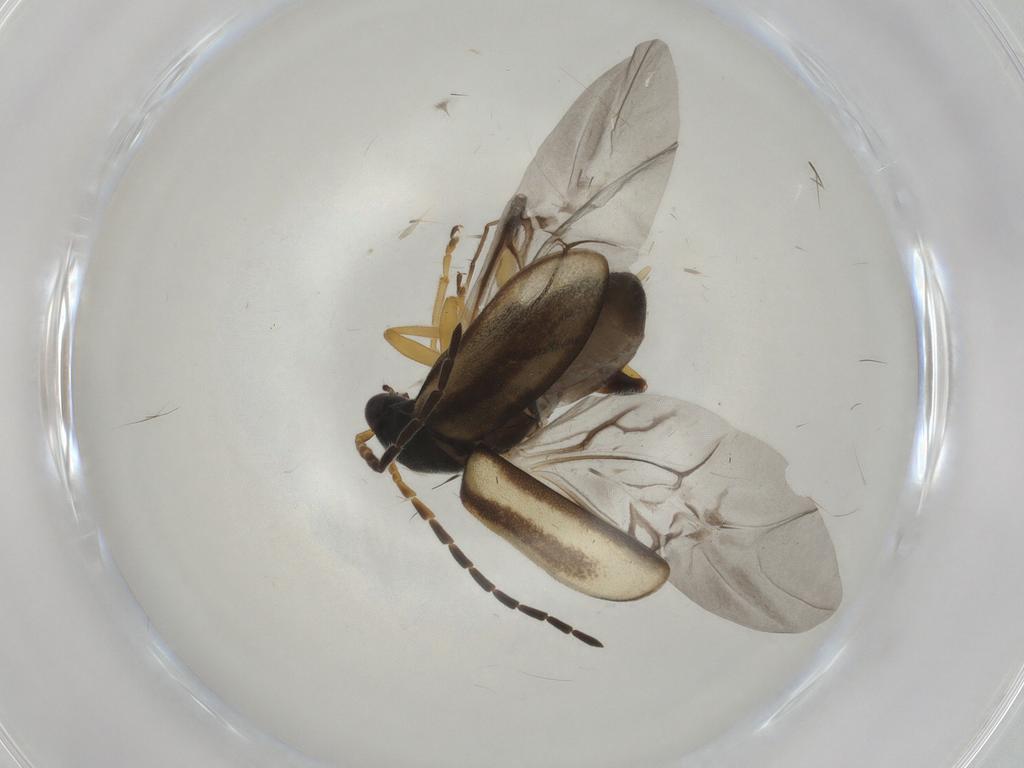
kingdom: Animalia
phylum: Arthropoda
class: Insecta
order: Coleoptera
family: Chrysomelidae
